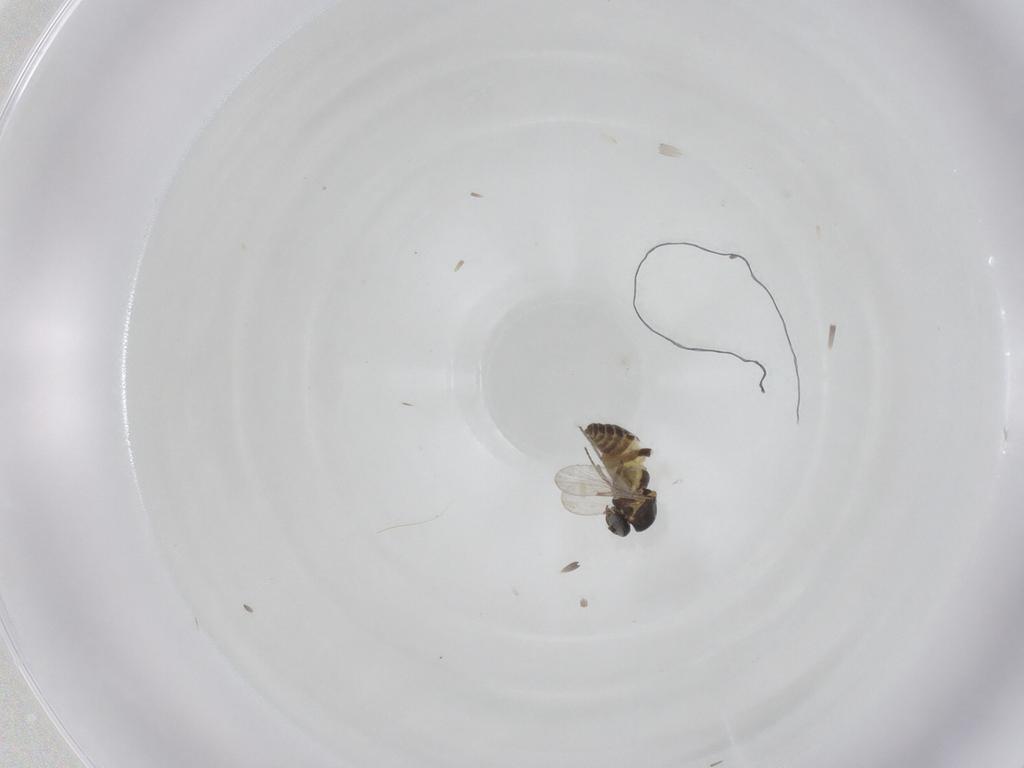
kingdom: Animalia
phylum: Arthropoda
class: Insecta
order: Diptera
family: Ceratopogonidae
